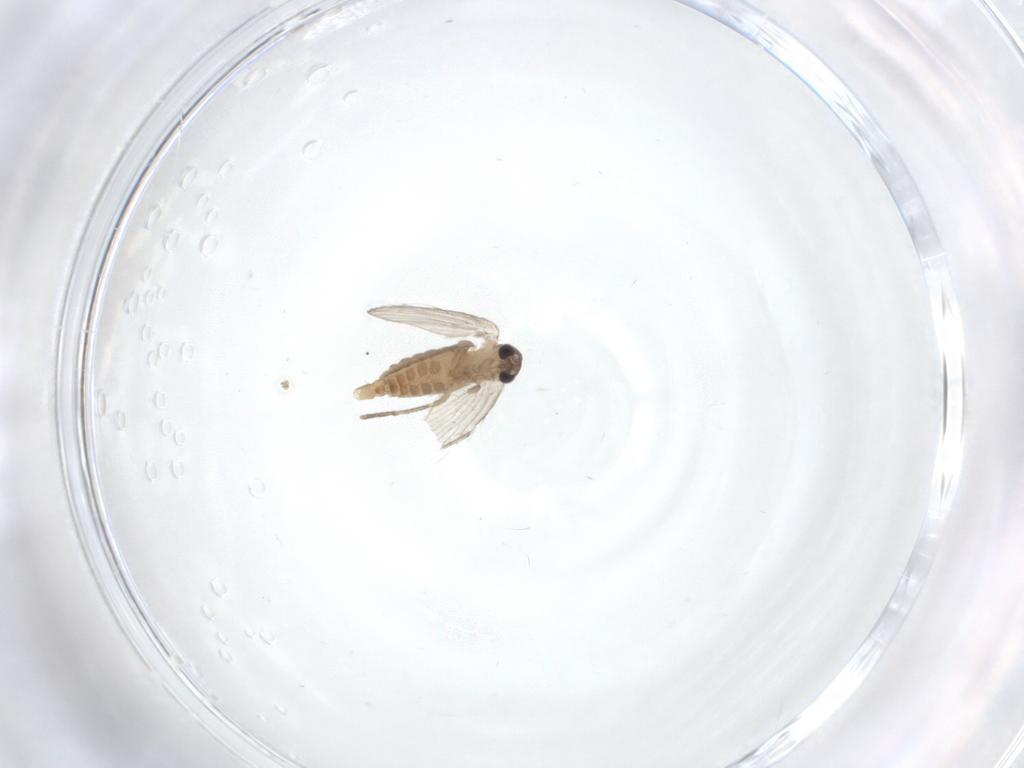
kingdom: Animalia
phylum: Arthropoda
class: Insecta
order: Diptera
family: Psychodidae
